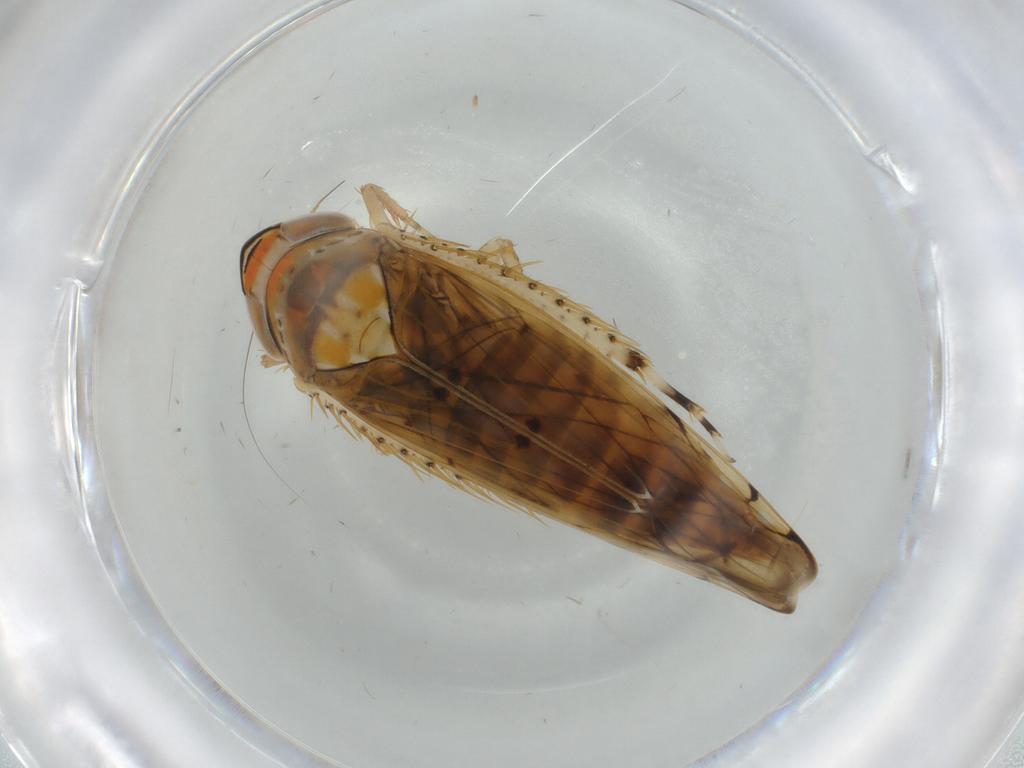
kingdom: Animalia
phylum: Arthropoda
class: Insecta
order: Hemiptera
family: Cicadellidae
